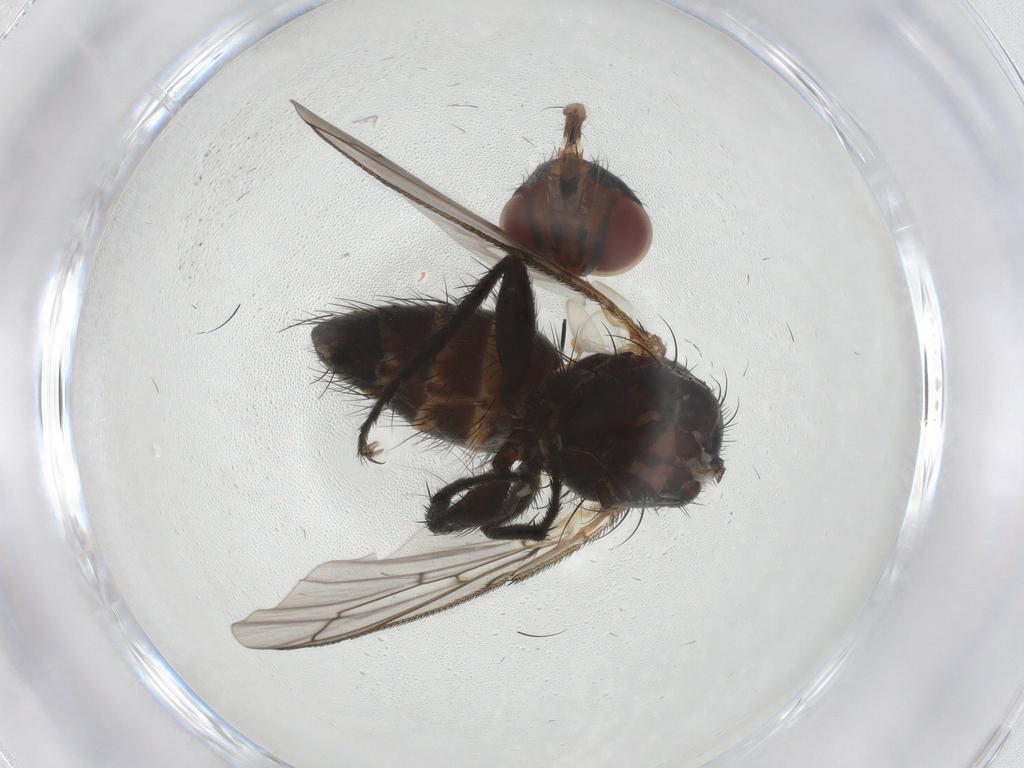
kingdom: Animalia
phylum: Arthropoda
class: Insecta
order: Diptera
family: Tachinidae
